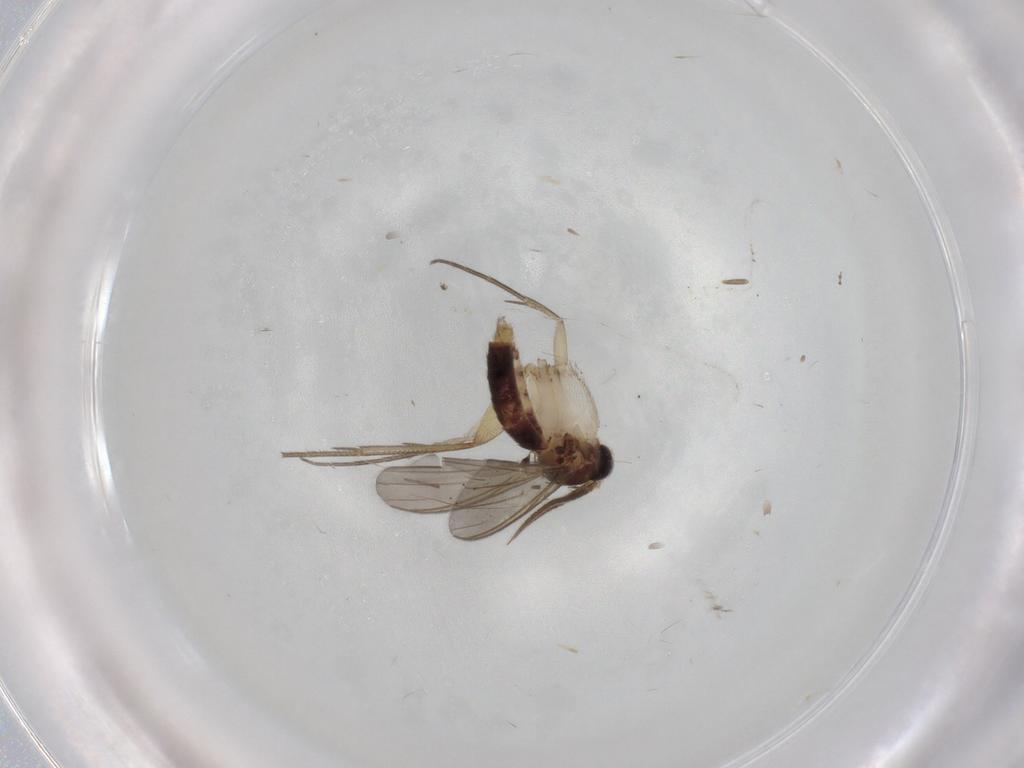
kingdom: Animalia
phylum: Arthropoda
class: Insecta
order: Diptera
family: Mycetophilidae
